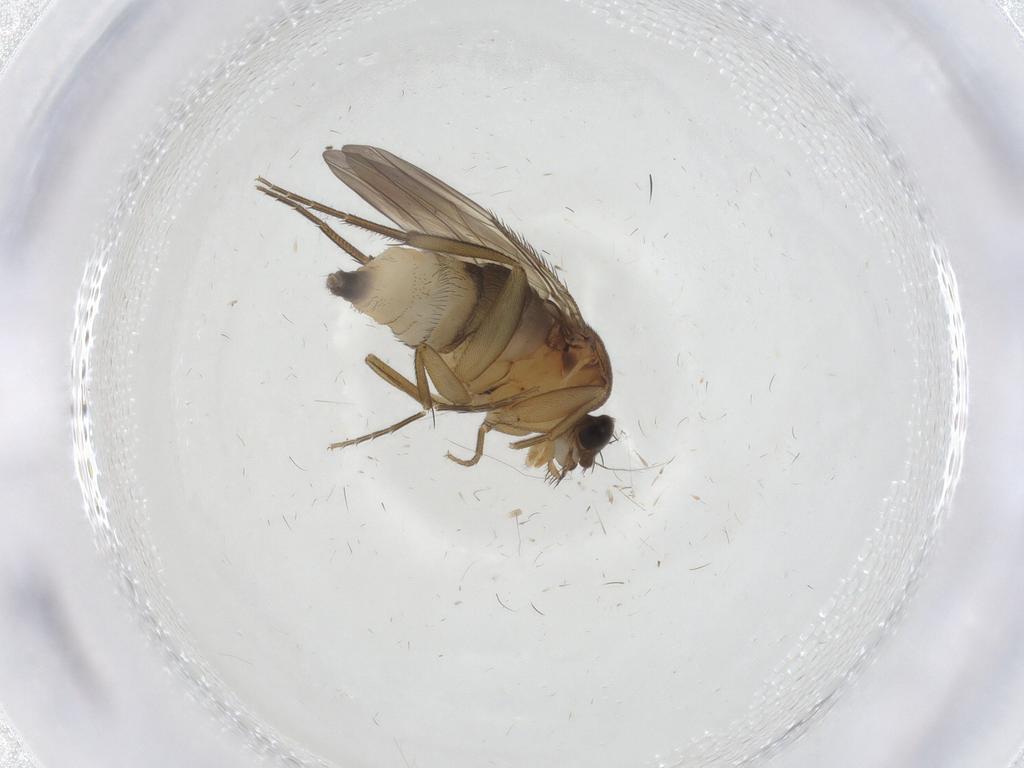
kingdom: Animalia
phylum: Arthropoda
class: Insecta
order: Diptera
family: Phoridae
